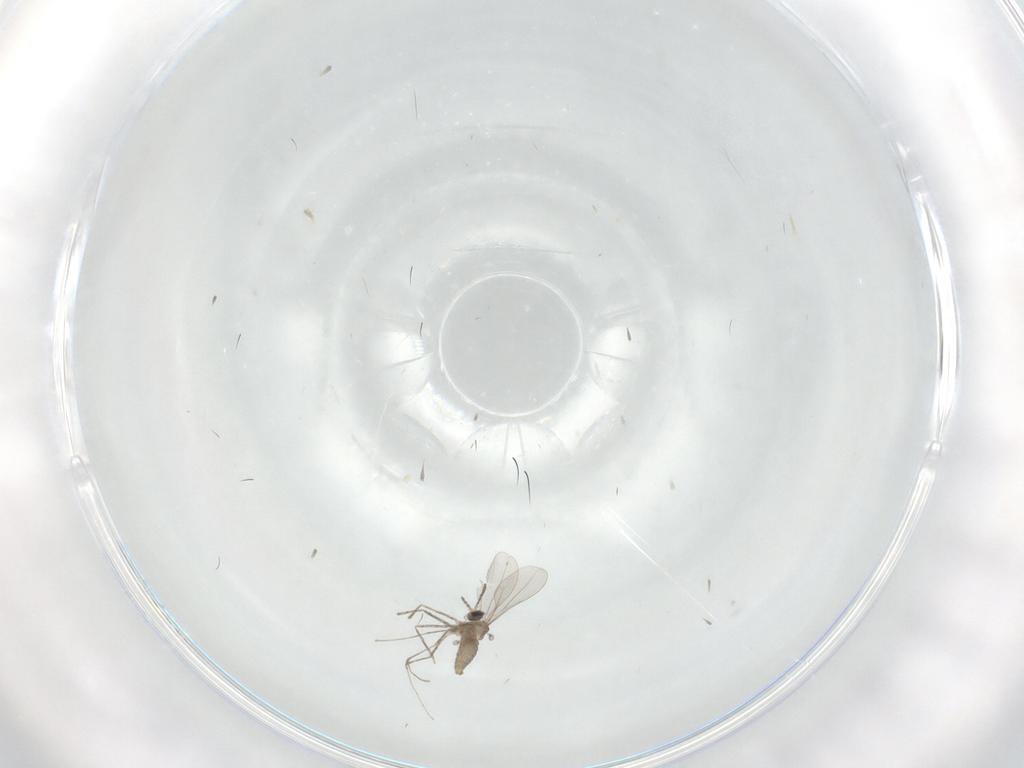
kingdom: Animalia
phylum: Arthropoda
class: Insecta
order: Diptera
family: Cecidomyiidae
